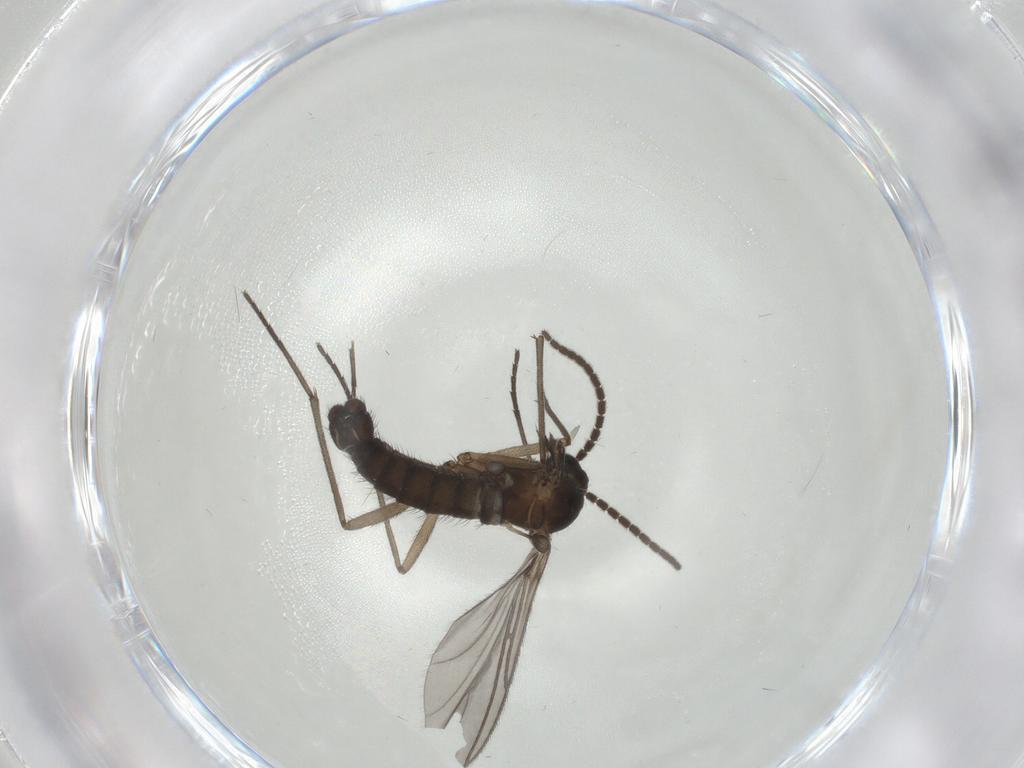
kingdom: Animalia
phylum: Arthropoda
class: Insecta
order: Diptera
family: Sciaridae
